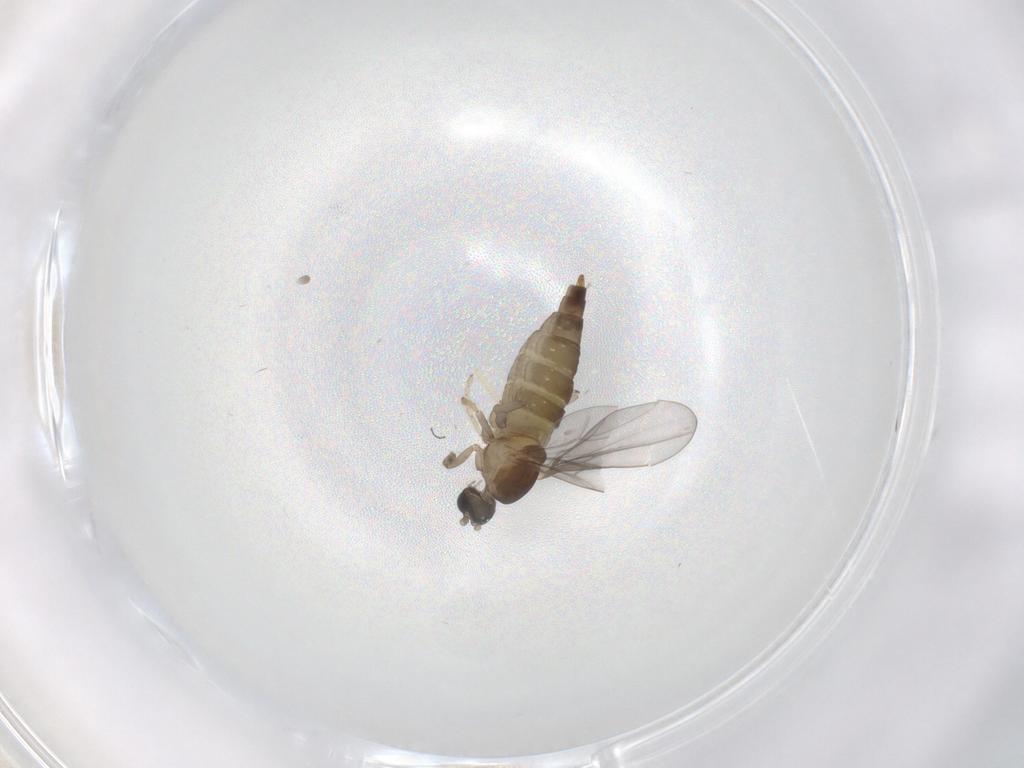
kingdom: Animalia
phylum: Arthropoda
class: Insecta
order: Diptera
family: Cecidomyiidae
